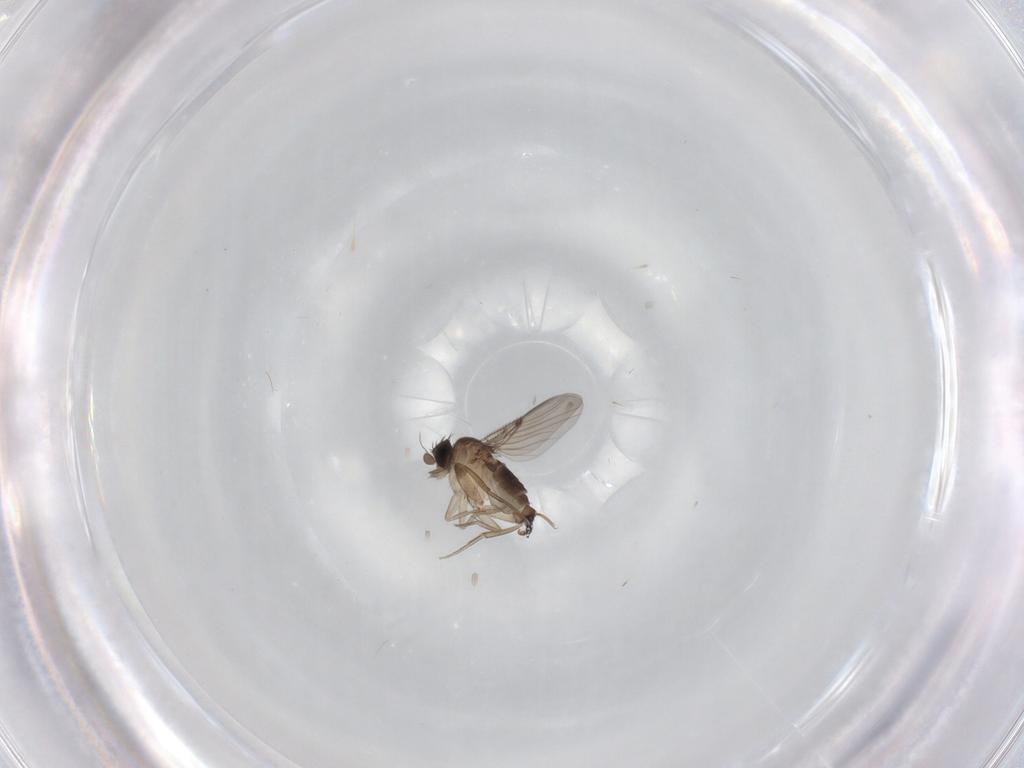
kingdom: Animalia
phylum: Arthropoda
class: Insecta
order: Diptera
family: Phoridae
